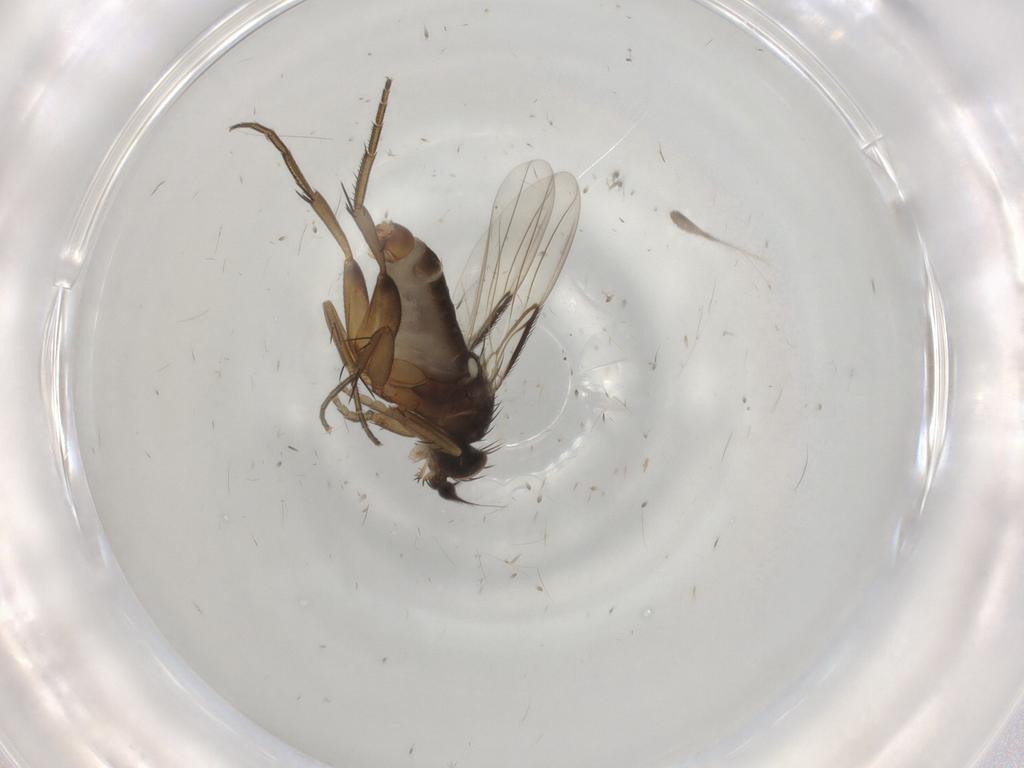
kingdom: Animalia
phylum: Arthropoda
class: Insecta
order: Diptera
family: Phoridae
